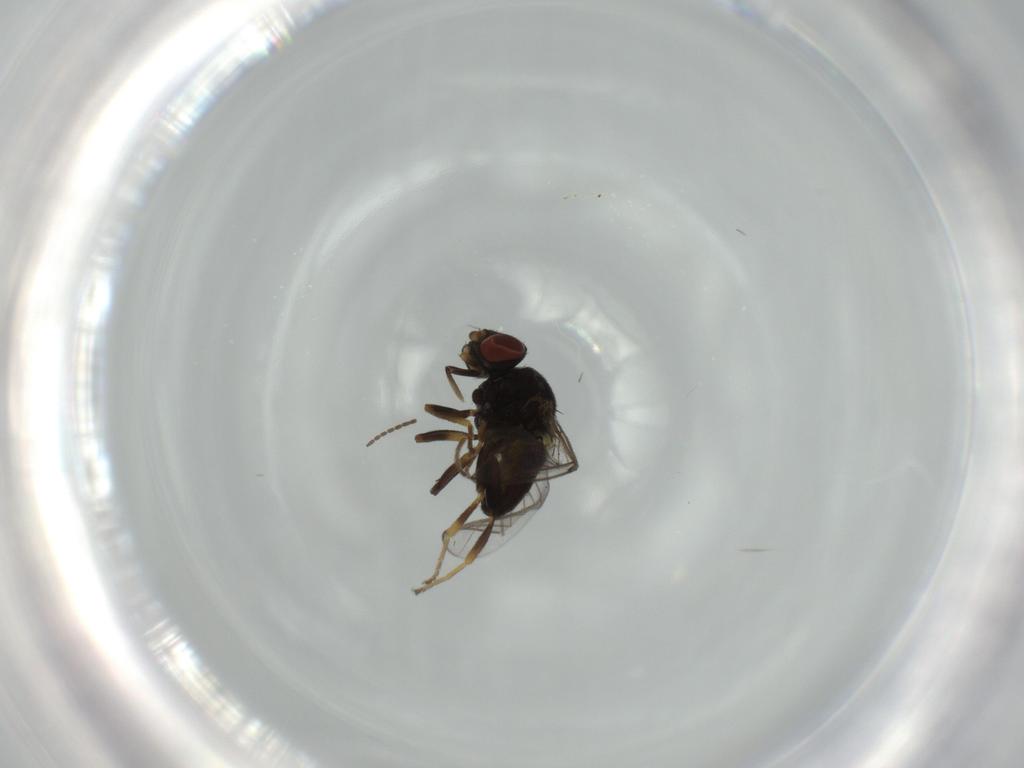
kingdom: Animalia
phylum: Arthropoda
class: Insecta
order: Diptera
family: Chloropidae
